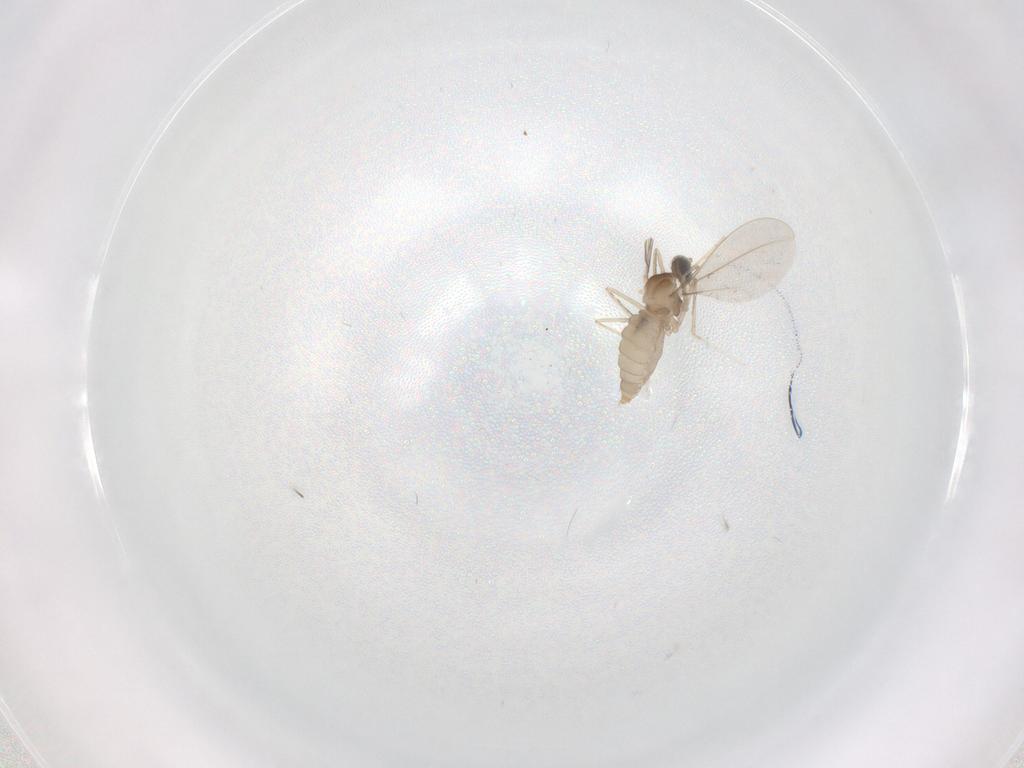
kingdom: Animalia
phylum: Arthropoda
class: Insecta
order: Diptera
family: Cecidomyiidae
